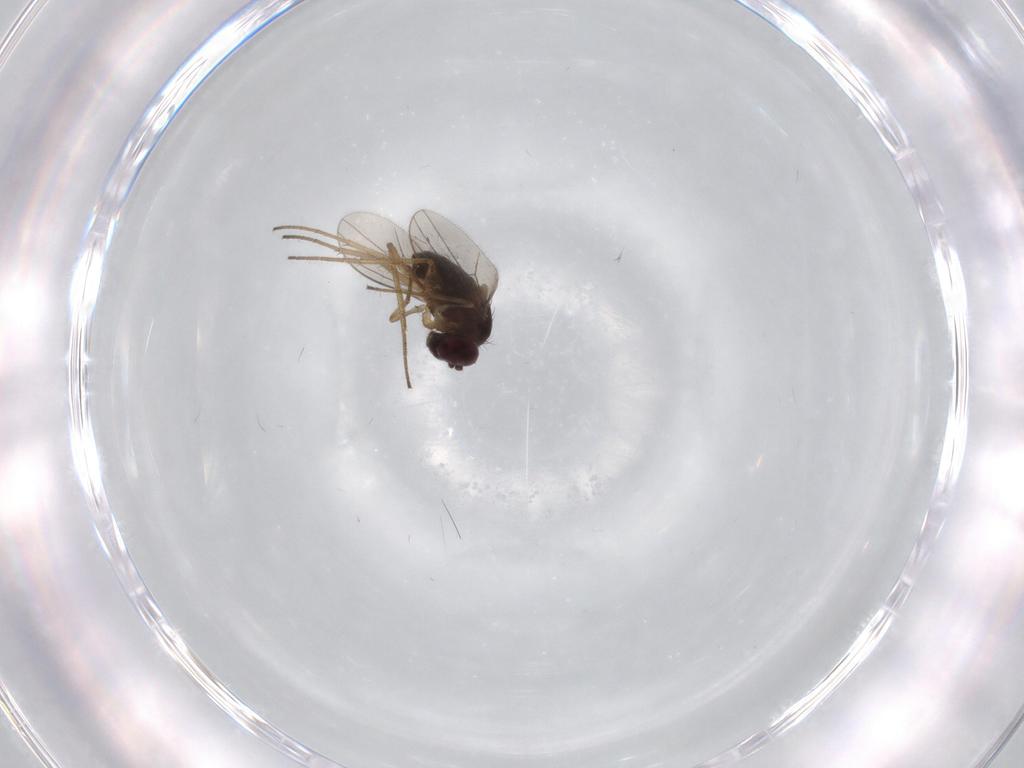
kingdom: Animalia
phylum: Arthropoda
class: Insecta
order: Diptera
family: Dolichopodidae
